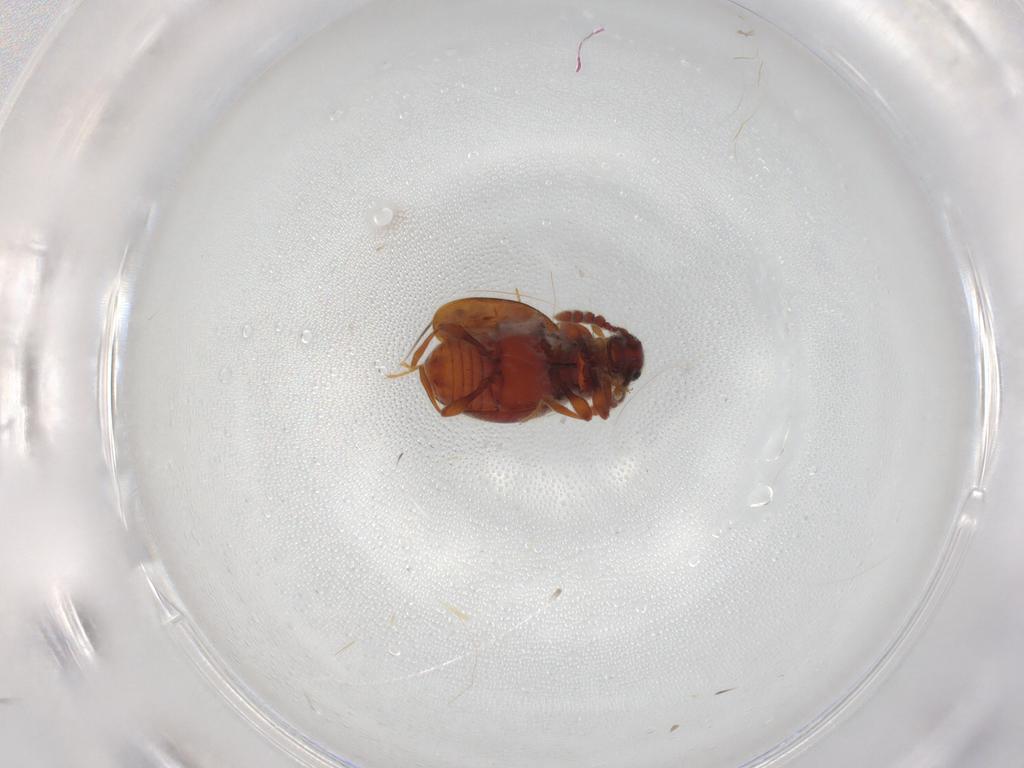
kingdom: Animalia
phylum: Arthropoda
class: Insecta
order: Coleoptera
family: Staphylinidae
